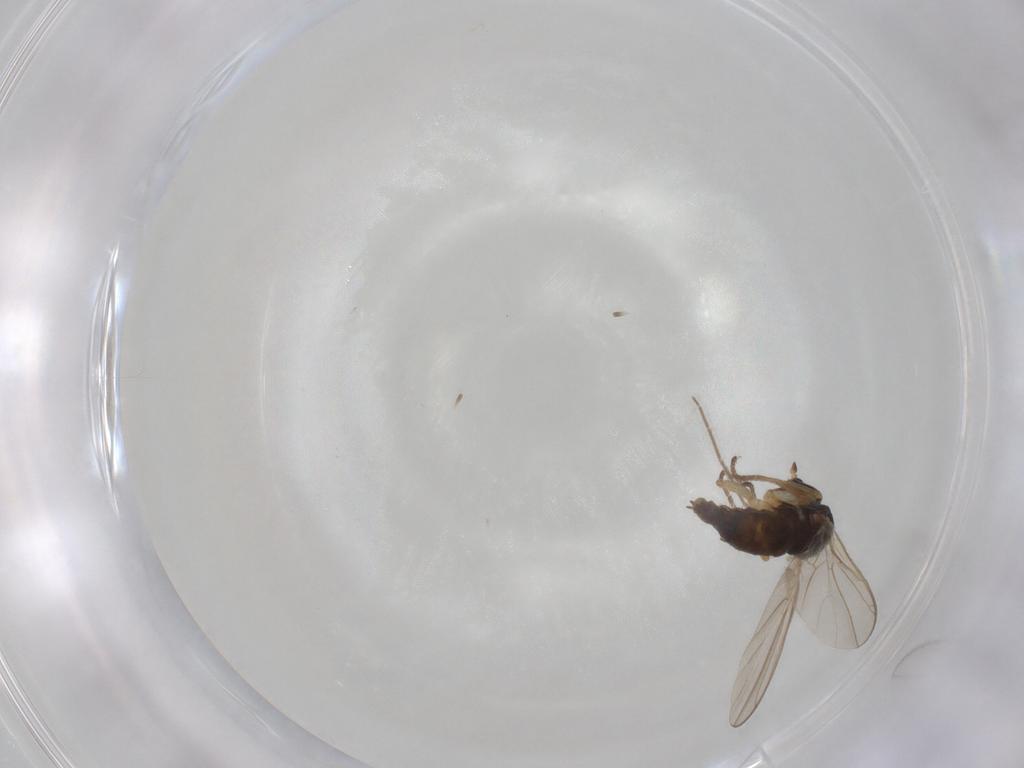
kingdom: Animalia
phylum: Arthropoda
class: Insecta
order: Diptera
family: Hybotidae
